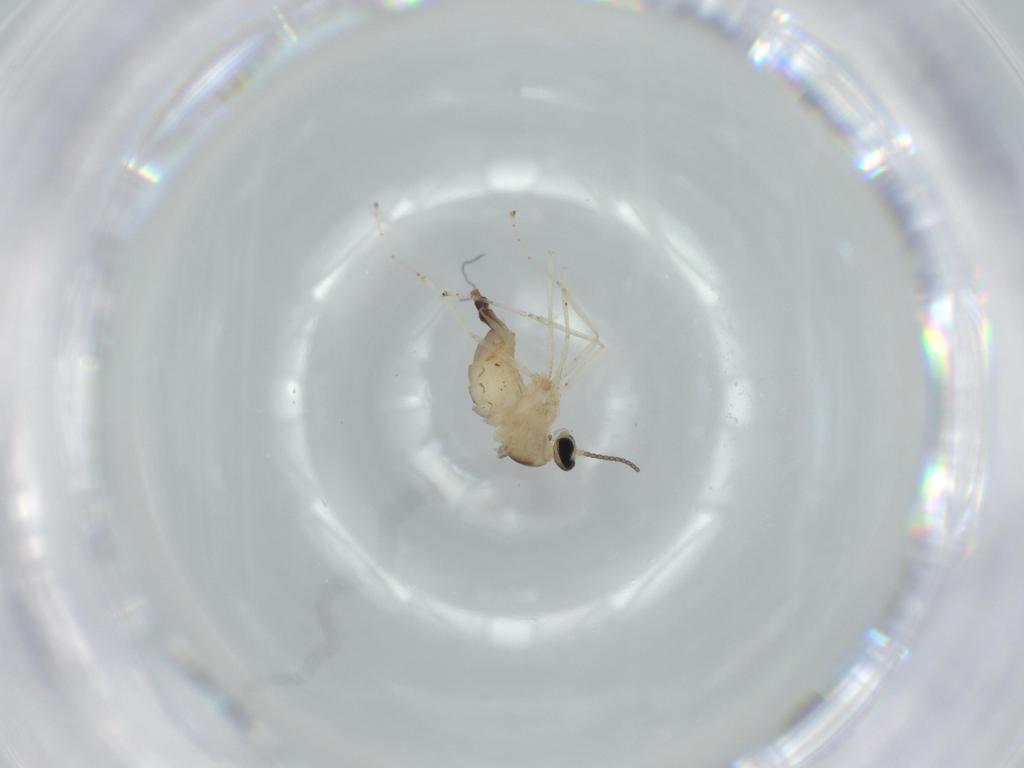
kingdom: Animalia
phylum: Arthropoda
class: Insecta
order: Diptera
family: Cecidomyiidae
